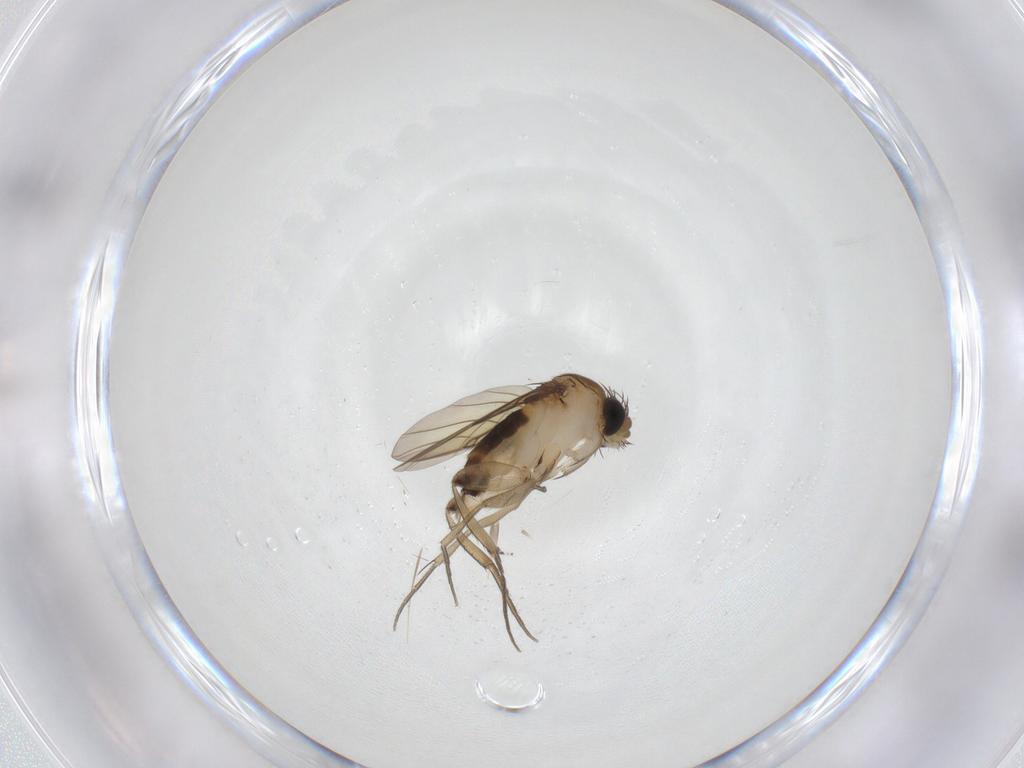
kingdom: Animalia
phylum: Arthropoda
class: Insecta
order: Diptera
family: Phoridae
